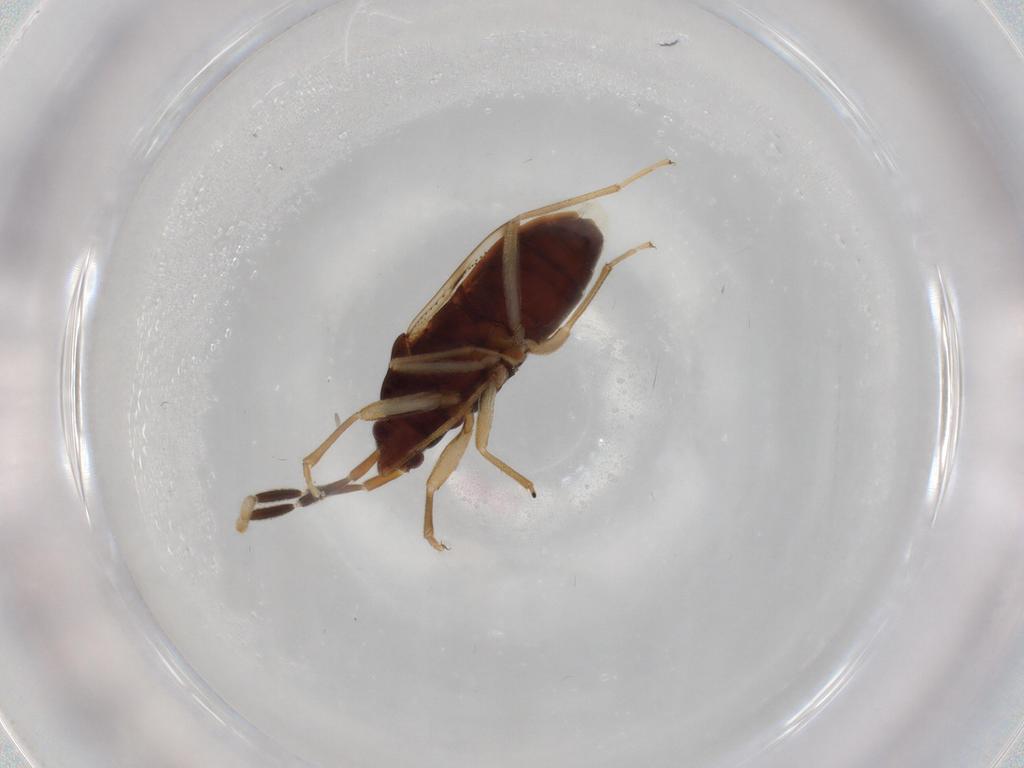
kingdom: Animalia
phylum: Arthropoda
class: Insecta
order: Hemiptera
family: Rhyparochromidae
